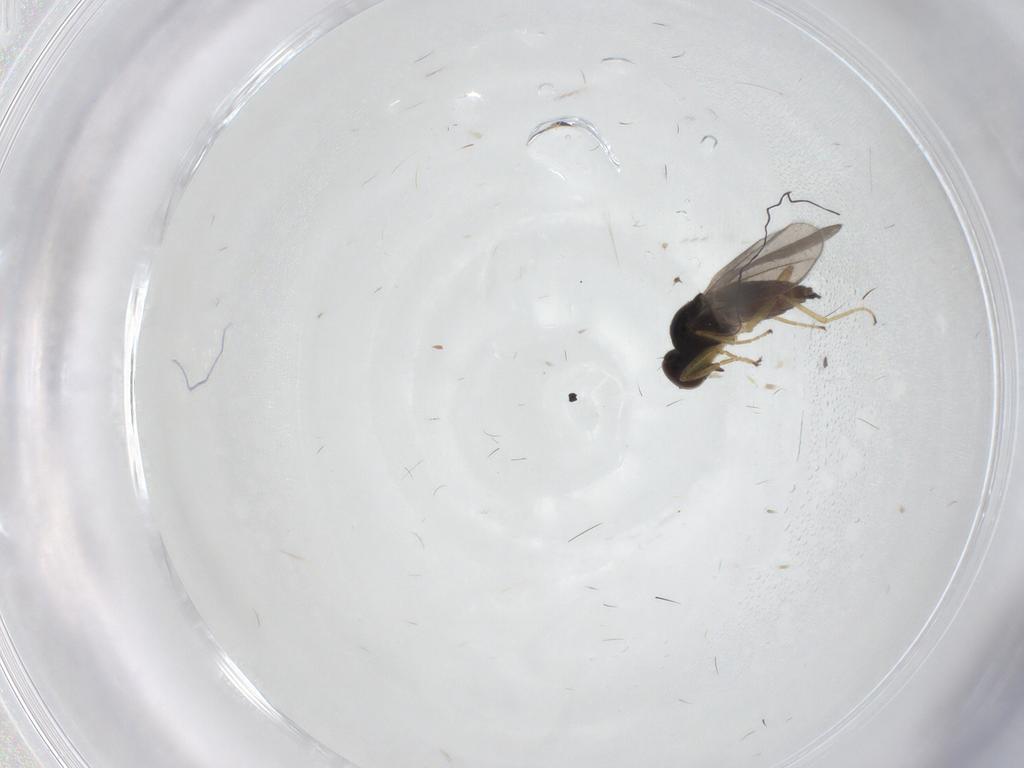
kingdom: Animalia
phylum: Arthropoda
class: Insecta
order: Diptera
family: Hybotidae
